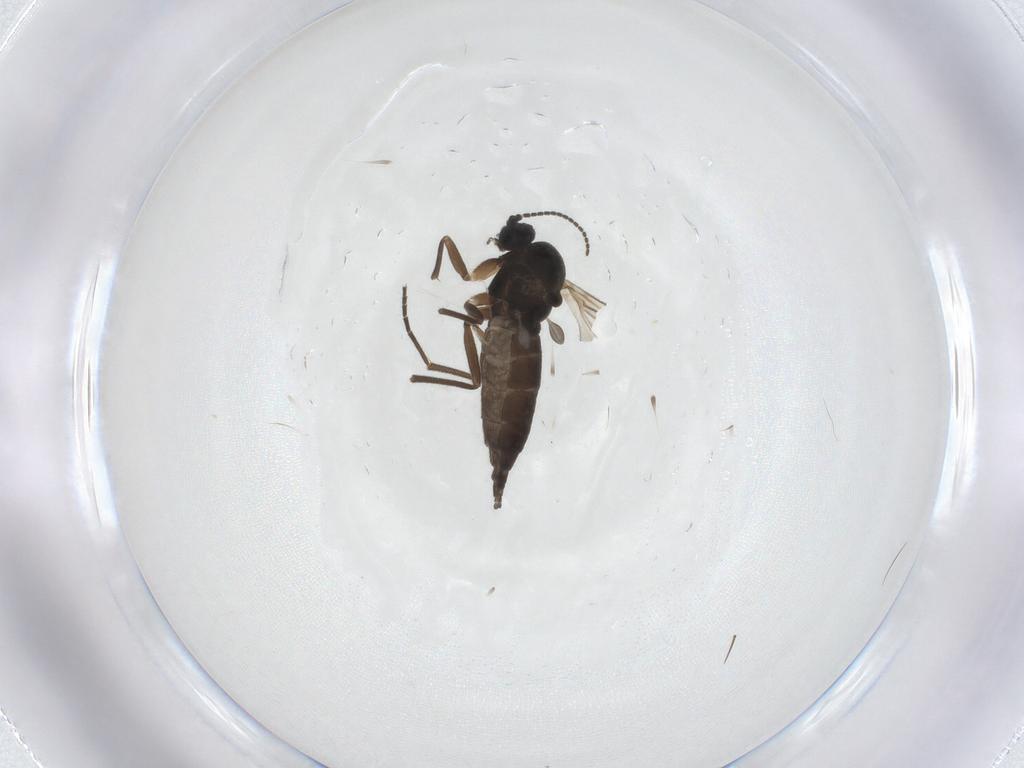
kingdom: Animalia
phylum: Arthropoda
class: Insecta
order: Diptera
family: Sciaridae
